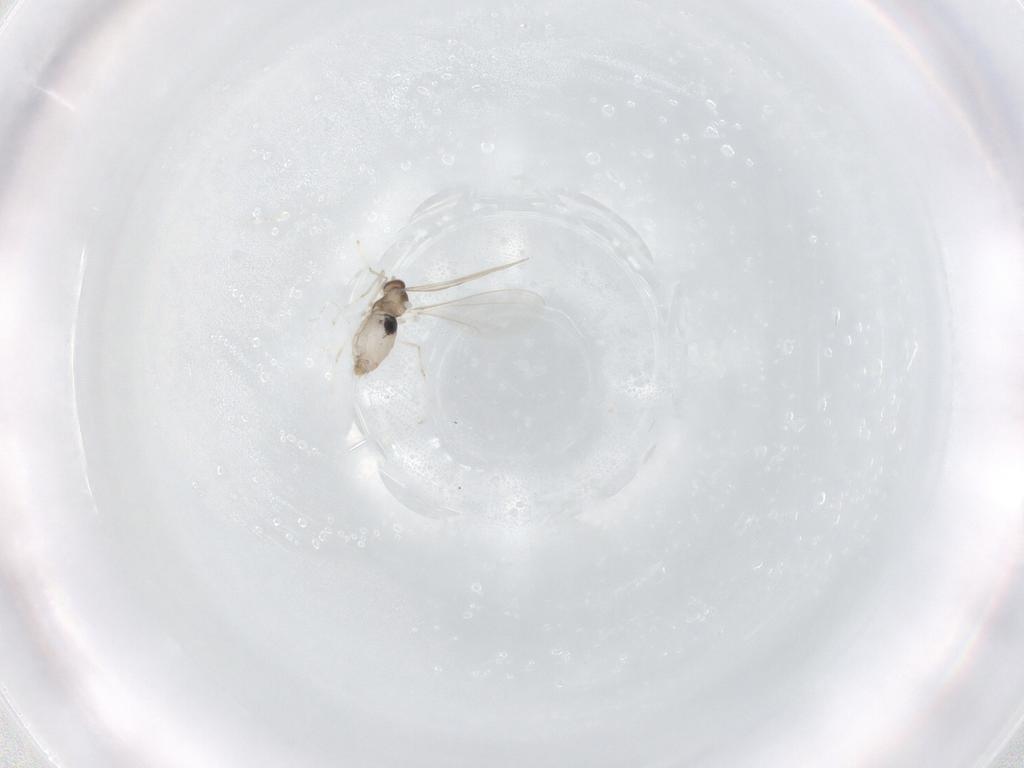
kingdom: Animalia
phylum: Arthropoda
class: Insecta
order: Diptera
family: Cecidomyiidae
